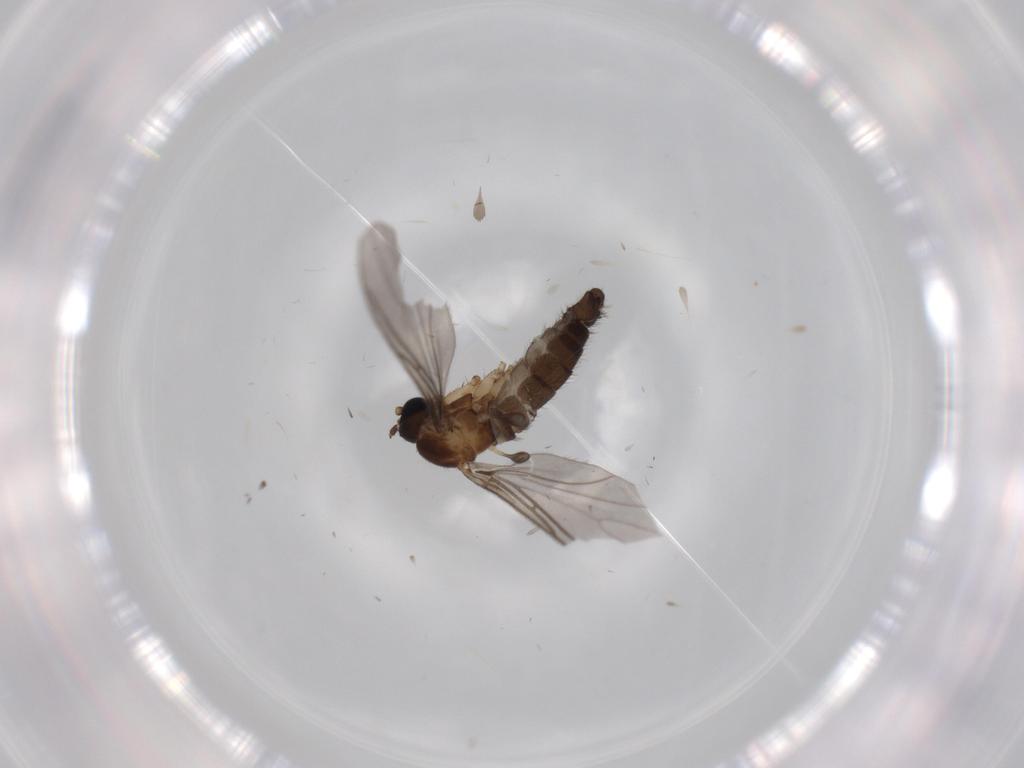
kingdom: Animalia
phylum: Arthropoda
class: Insecta
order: Diptera
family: Sciaridae
